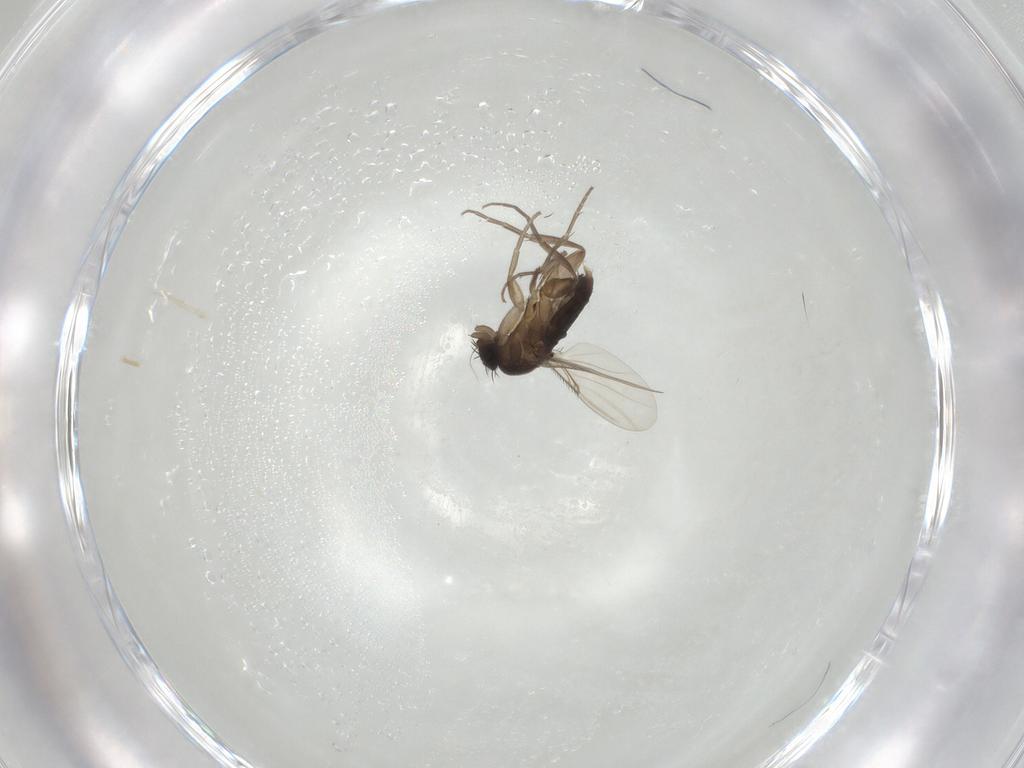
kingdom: Animalia
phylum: Arthropoda
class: Insecta
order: Diptera
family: Phoridae
